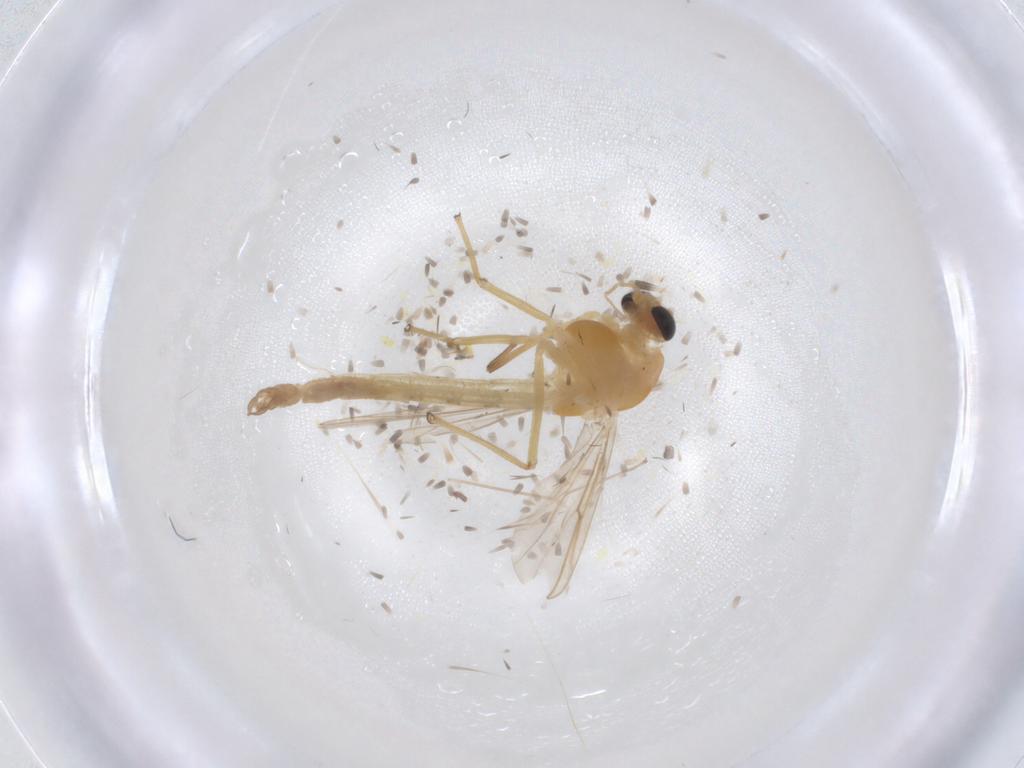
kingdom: Animalia
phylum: Arthropoda
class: Insecta
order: Diptera
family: Chironomidae
